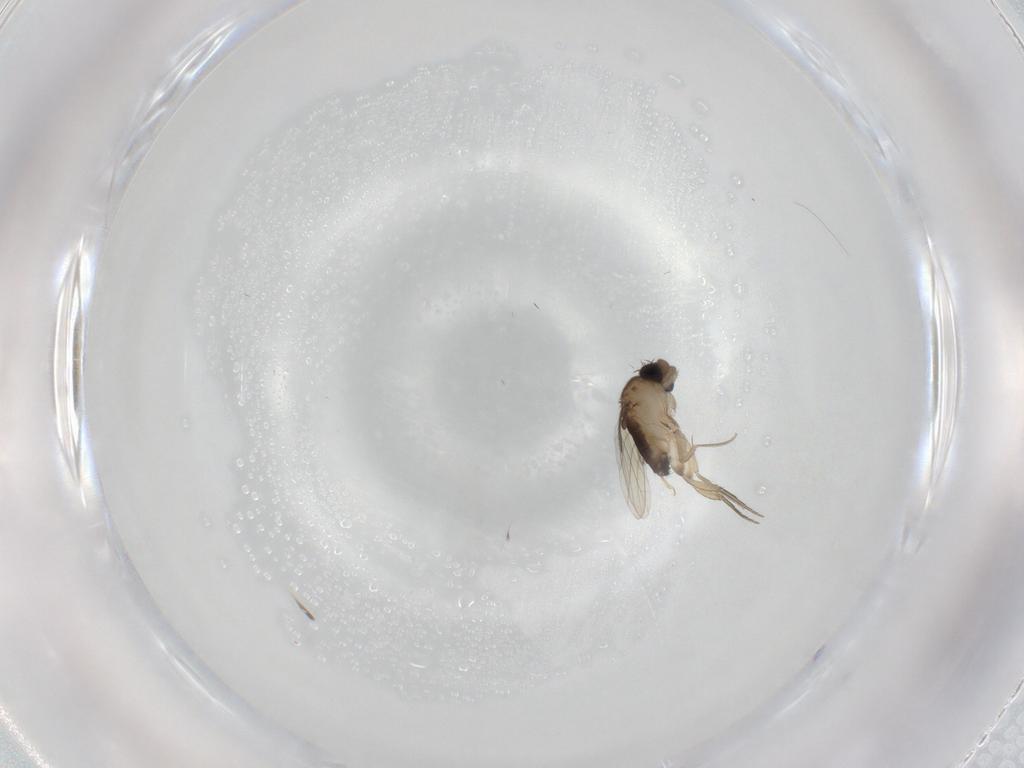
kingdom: Animalia
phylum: Arthropoda
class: Insecta
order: Diptera
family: Phoridae
